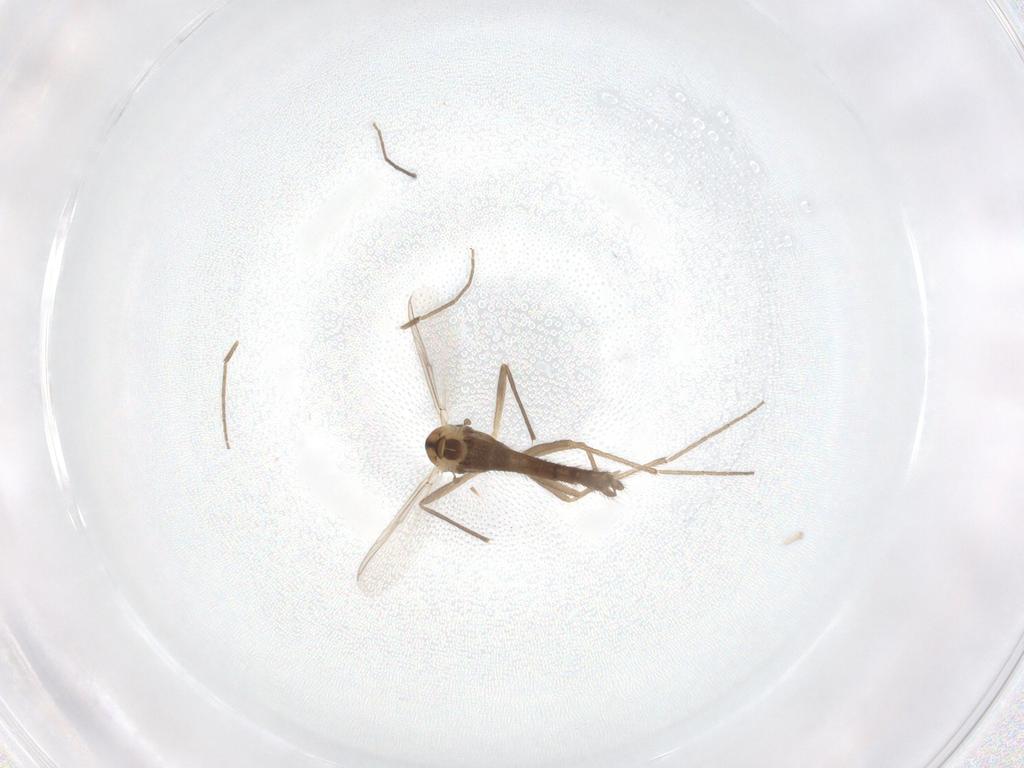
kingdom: Animalia
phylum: Arthropoda
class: Insecta
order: Diptera
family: Chironomidae
